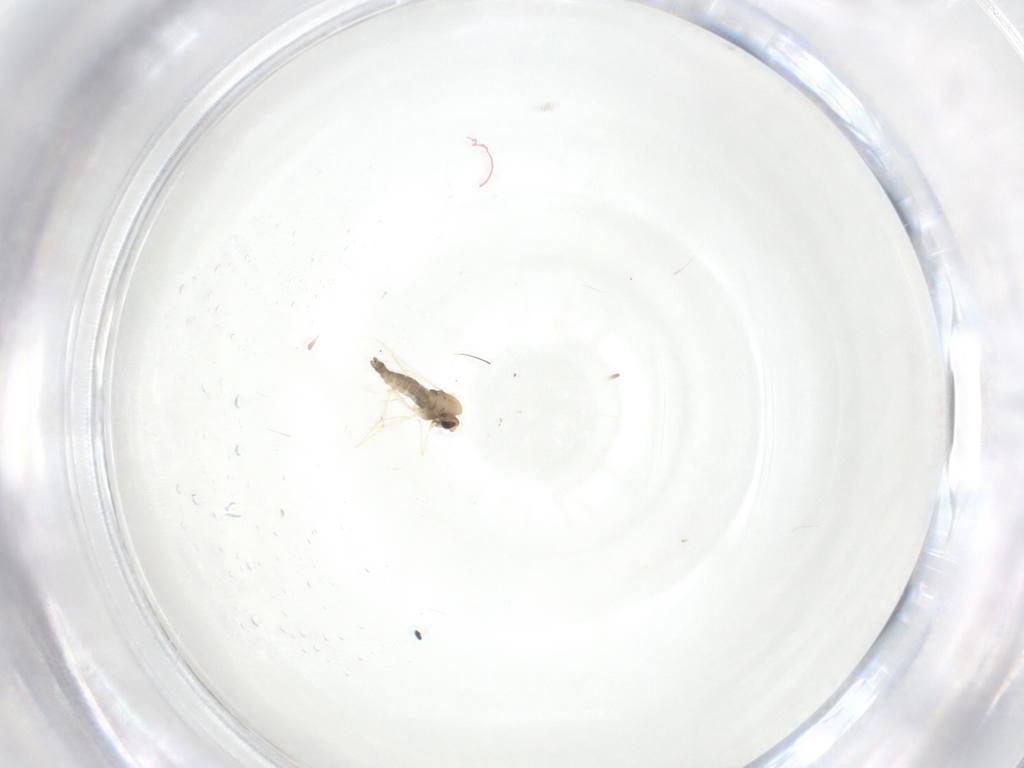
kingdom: Animalia
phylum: Arthropoda
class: Insecta
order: Diptera
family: Chironomidae
